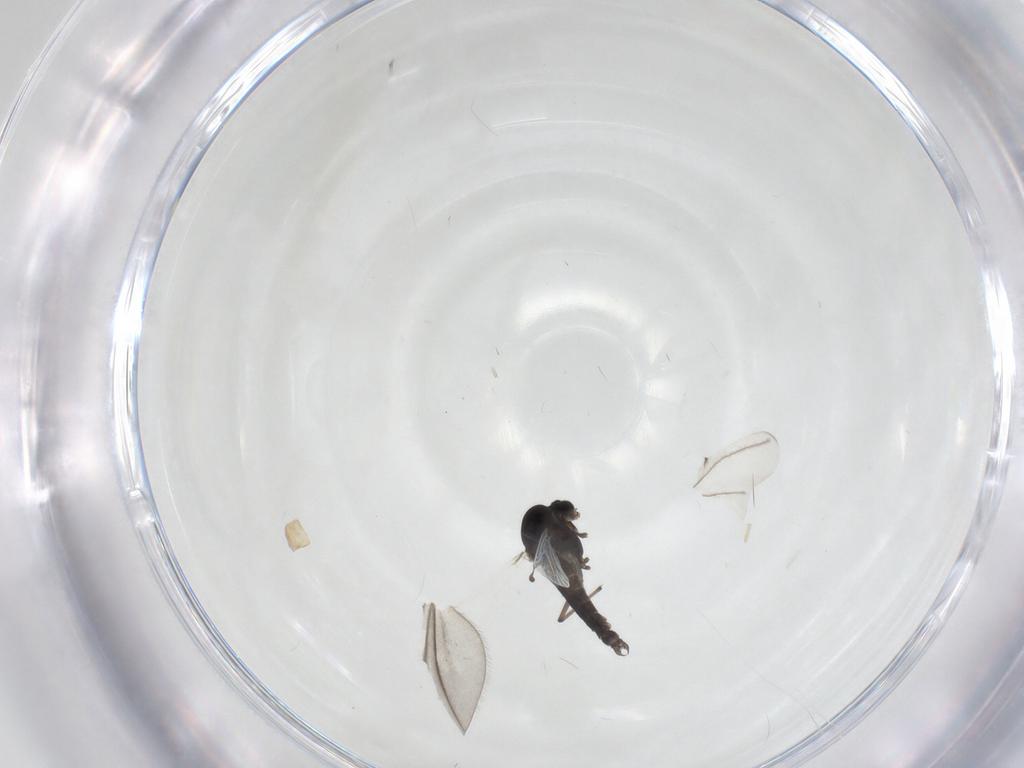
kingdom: Animalia
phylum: Arthropoda
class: Insecta
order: Diptera
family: Chironomidae
